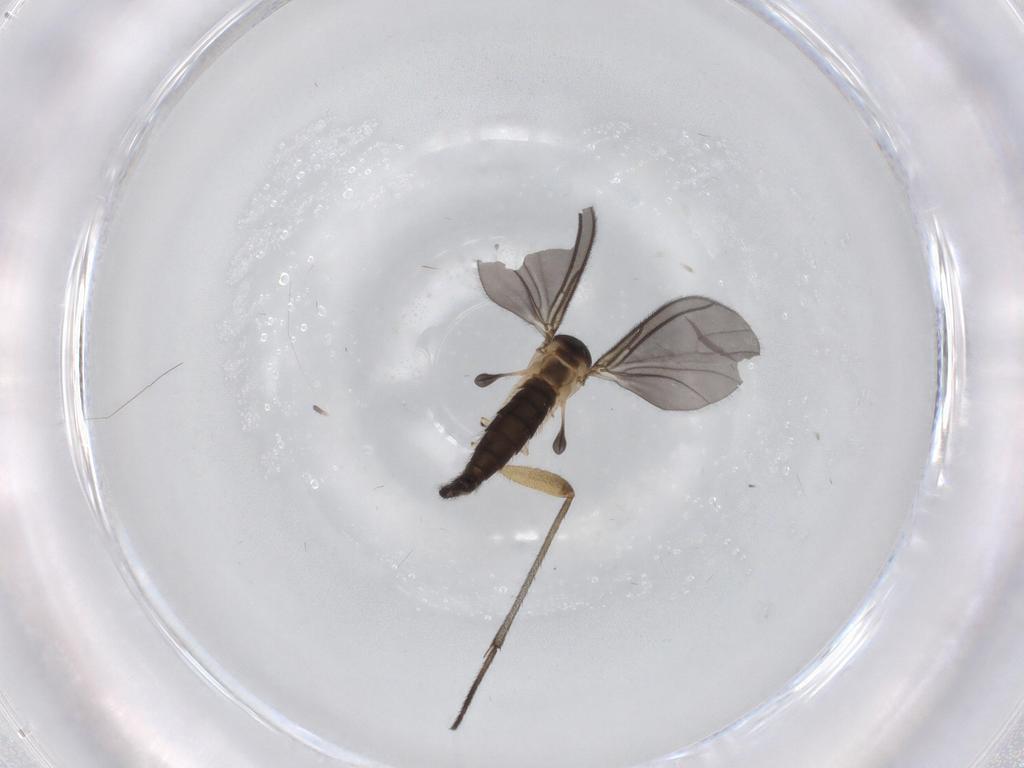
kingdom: Animalia
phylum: Arthropoda
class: Insecta
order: Diptera
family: Sciaridae
